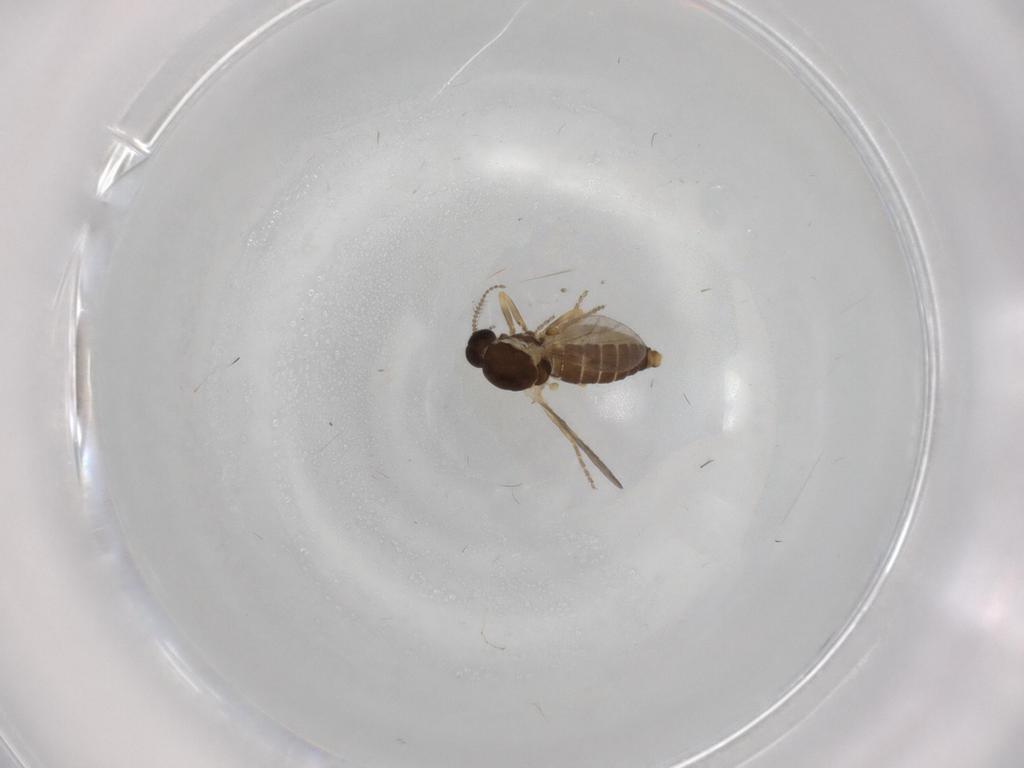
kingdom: Animalia
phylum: Arthropoda
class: Insecta
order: Diptera
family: Ceratopogonidae
